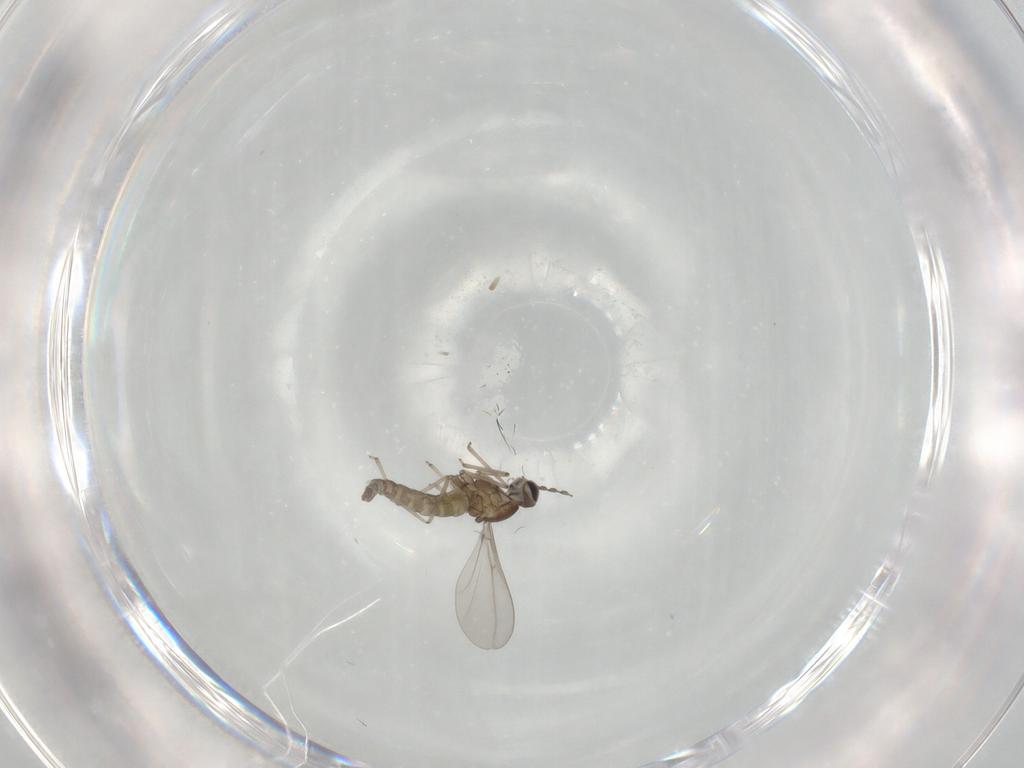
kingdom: Animalia
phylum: Arthropoda
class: Insecta
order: Diptera
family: Cecidomyiidae
